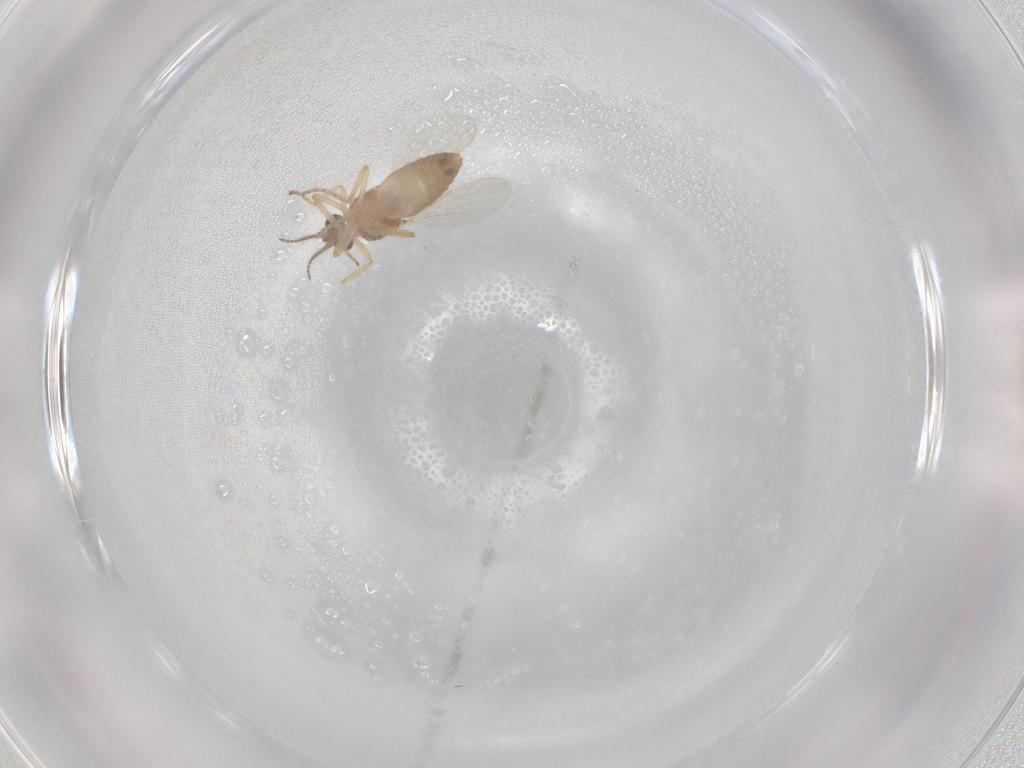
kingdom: Animalia
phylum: Arthropoda
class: Insecta
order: Diptera
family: Ceratopogonidae
